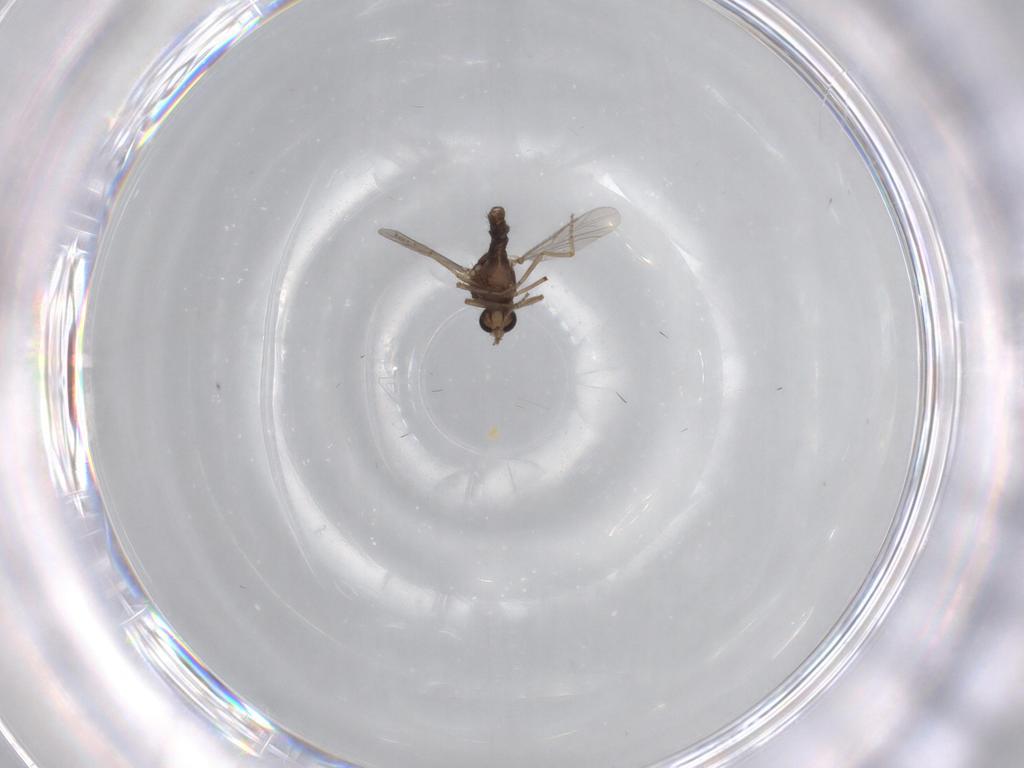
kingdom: Animalia
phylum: Arthropoda
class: Insecta
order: Diptera
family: Ceratopogonidae
